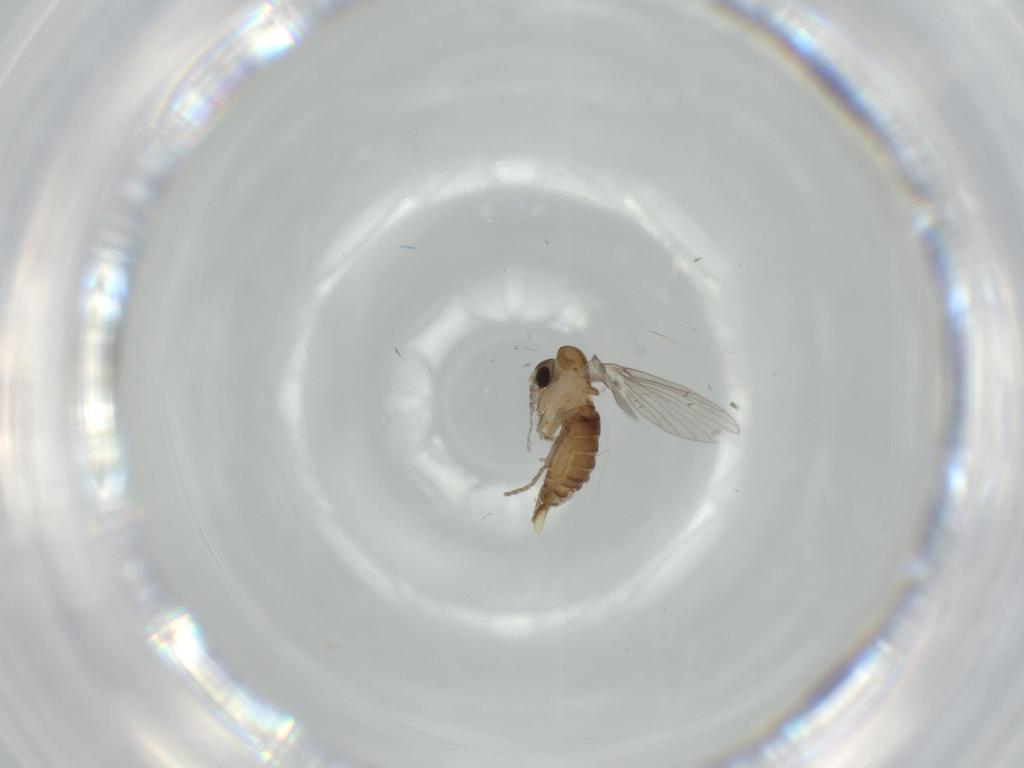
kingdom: Animalia
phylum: Arthropoda
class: Insecta
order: Diptera
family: Psychodidae
